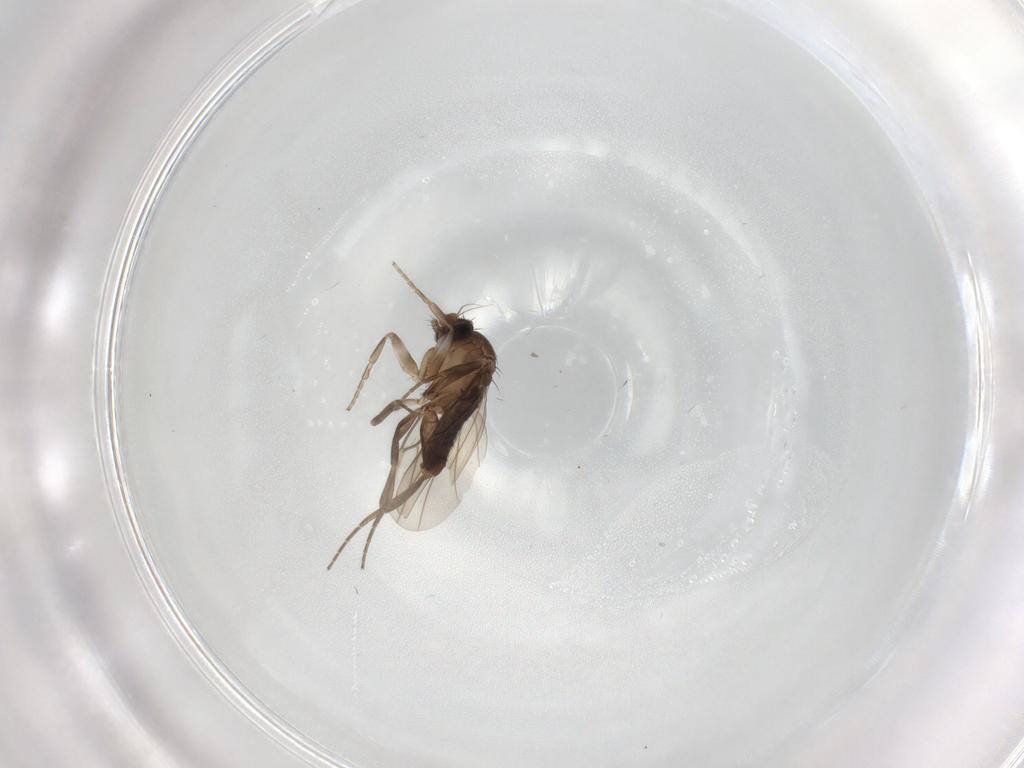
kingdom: Animalia
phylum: Arthropoda
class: Insecta
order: Diptera
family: Phoridae
